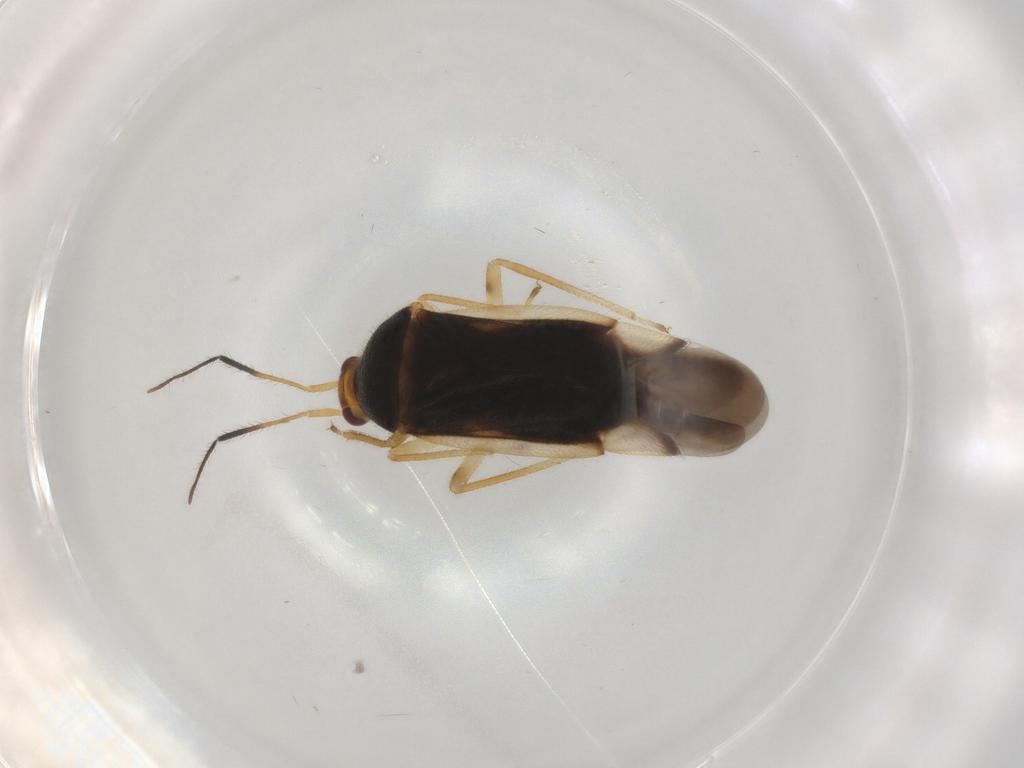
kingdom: Animalia
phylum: Arthropoda
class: Insecta
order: Hemiptera
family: Miridae
